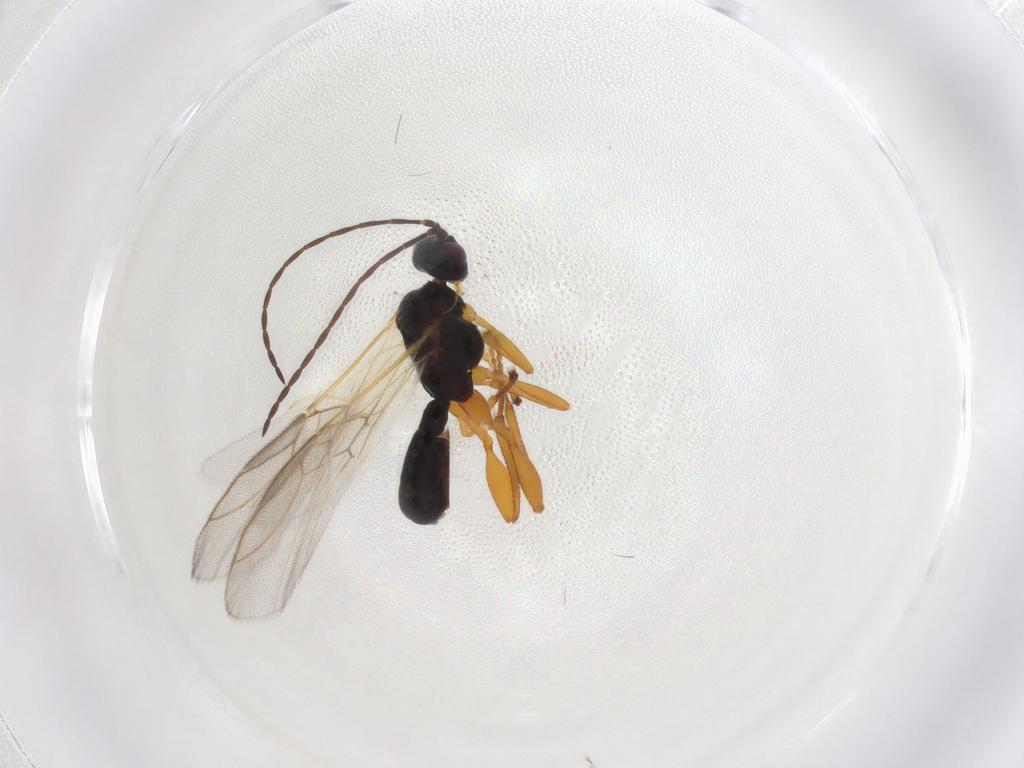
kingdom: Animalia
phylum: Arthropoda
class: Insecta
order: Hymenoptera
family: Braconidae
